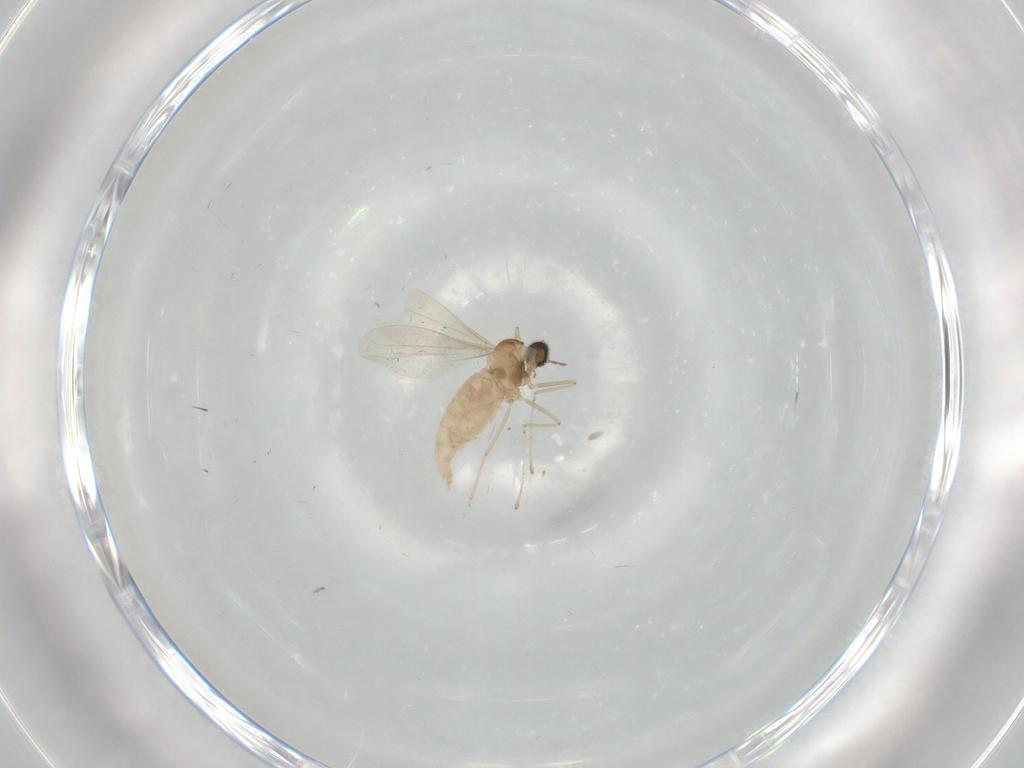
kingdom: Animalia
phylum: Arthropoda
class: Insecta
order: Diptera
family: Cecidomyiidae
